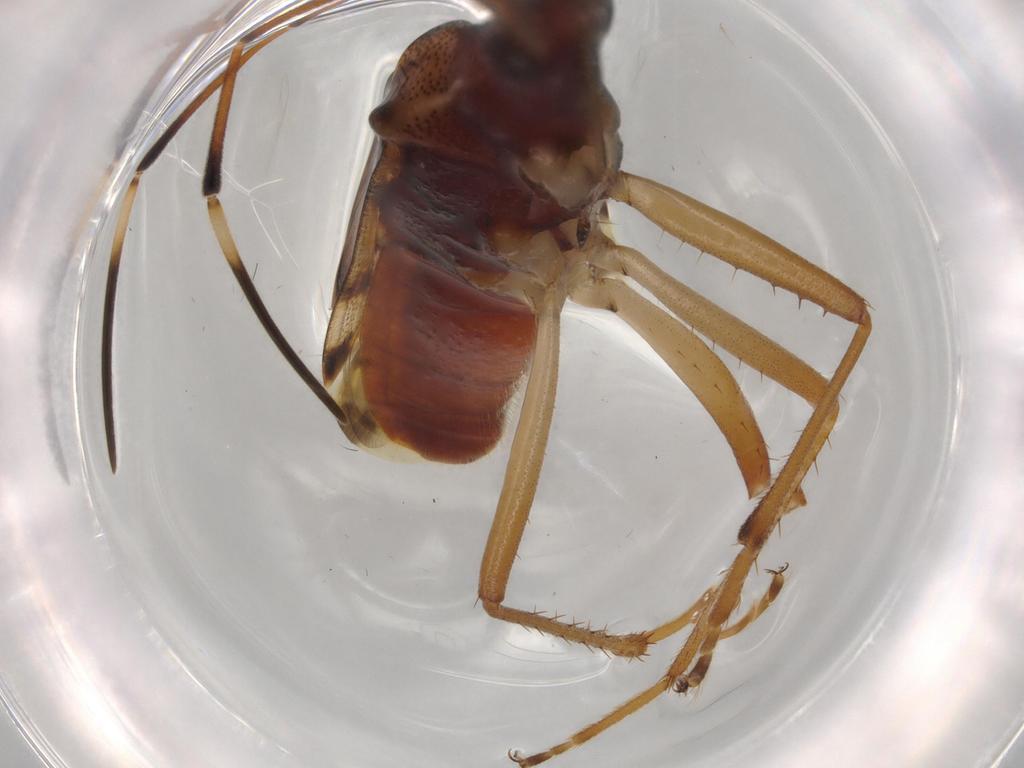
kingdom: Animalia
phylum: Arthropoda
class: Insecta
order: Hemiptera
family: Rhyparochromidae
